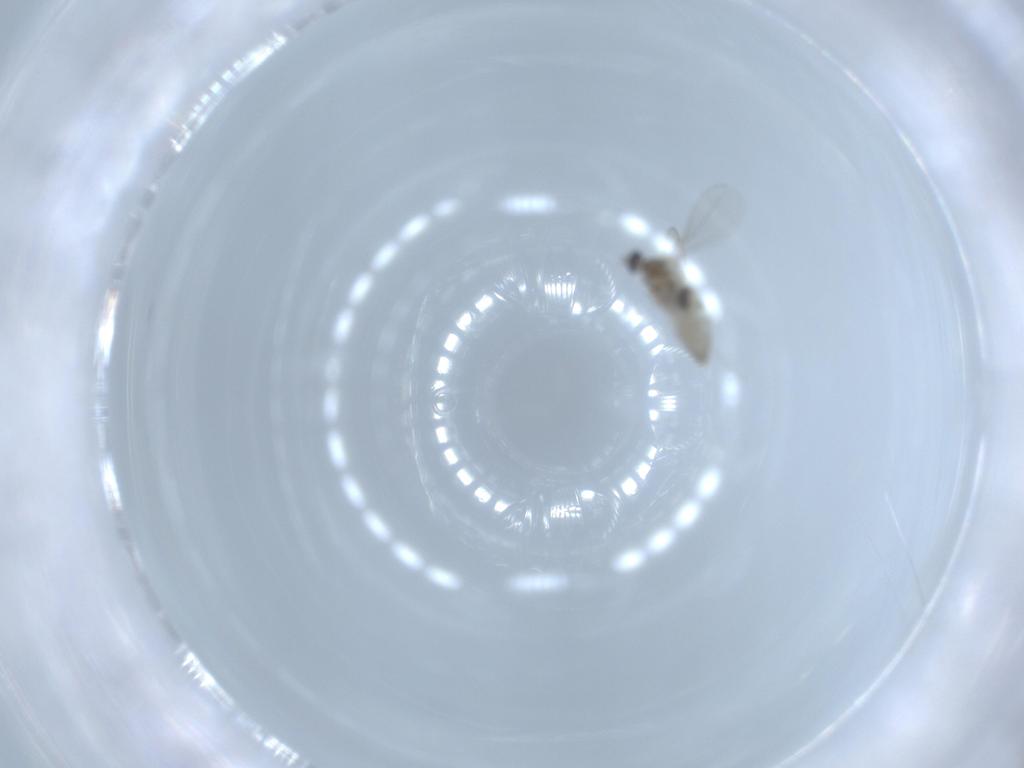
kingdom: Animalia
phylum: Arthropoda
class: Insecta
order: Diptera
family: Cecidomyiidae
